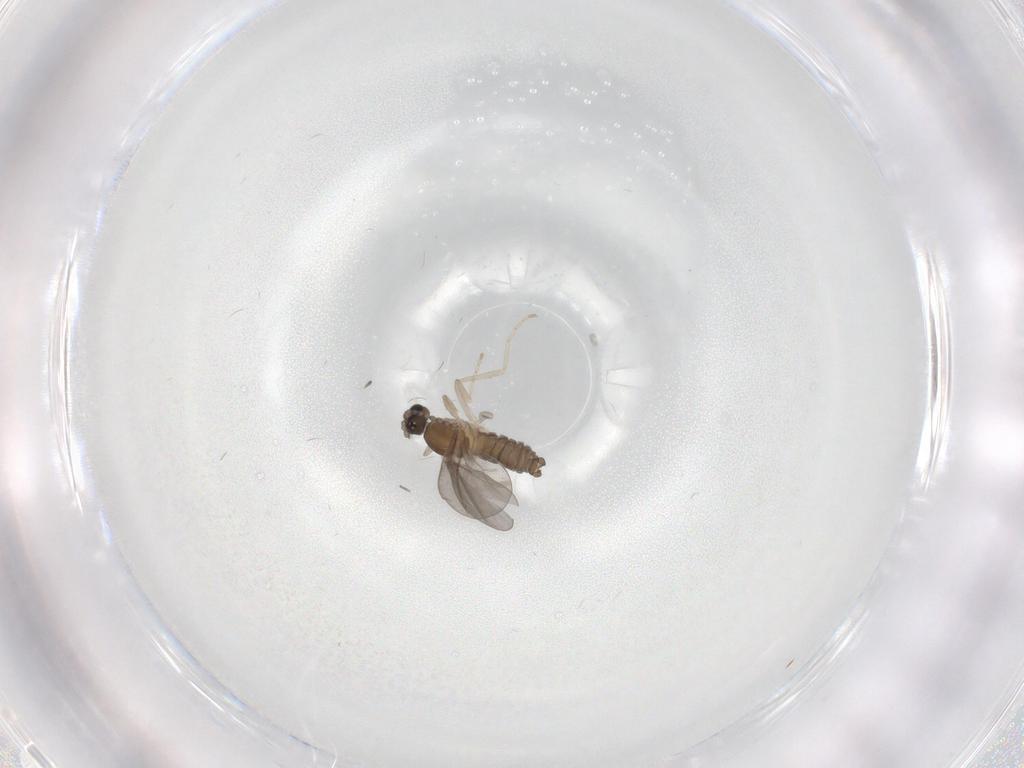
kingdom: Animalia
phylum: Arthropoda
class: Insecta
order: Diptera
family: Cecidomyiidae
